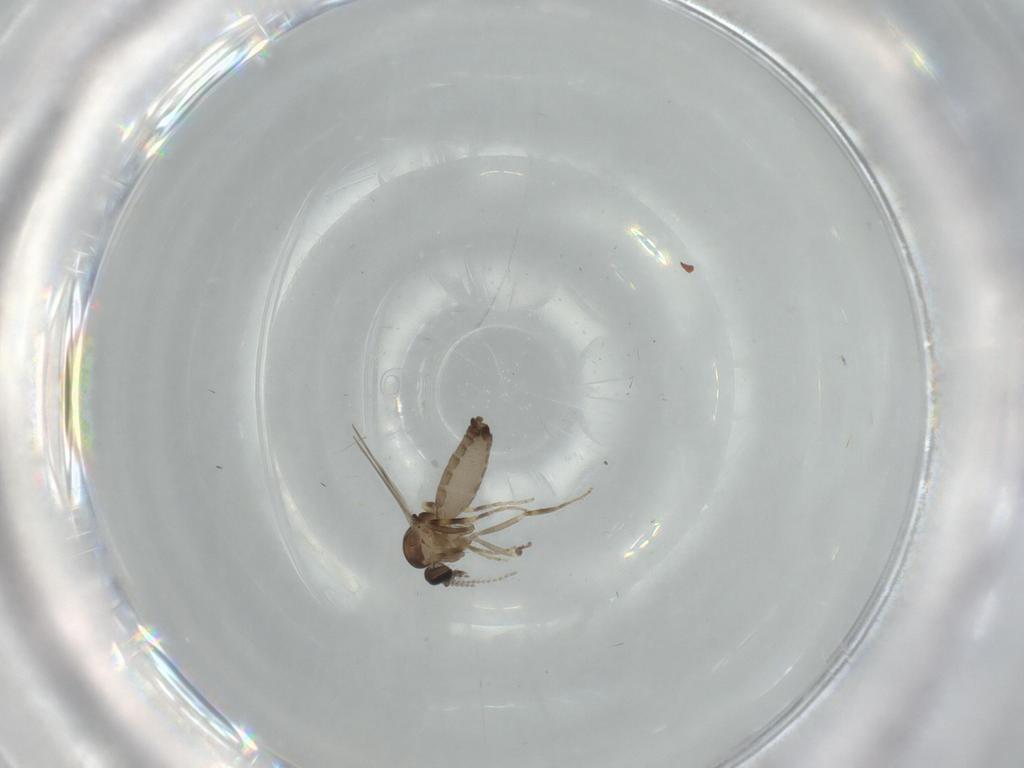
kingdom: Animalia
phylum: Arthropoda
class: Insecta
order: Diptera
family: Ceratopogonidae
